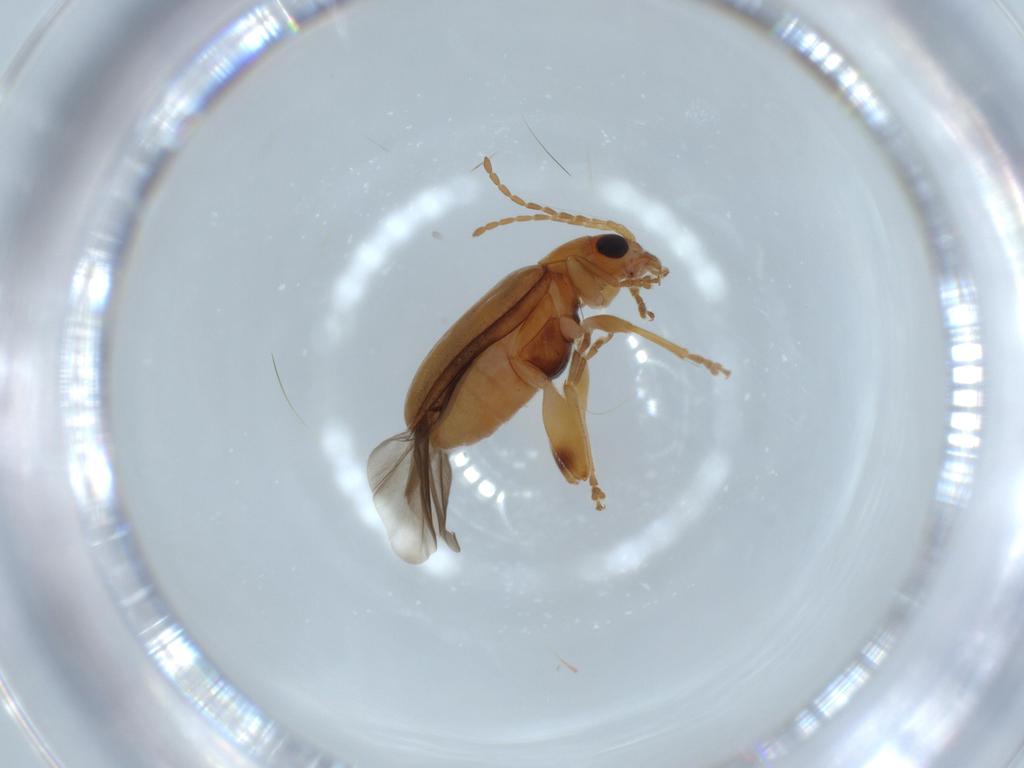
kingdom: Animalia
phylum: Arthropoda
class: Insecta
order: Coleoptera
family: Chrysomelidae
